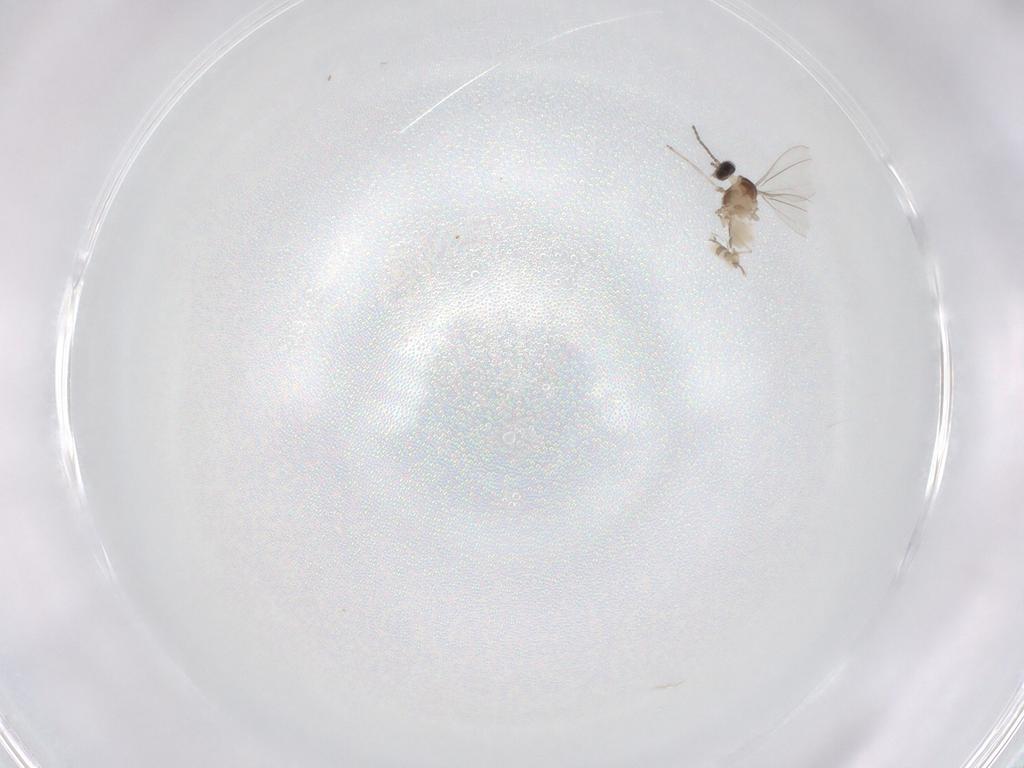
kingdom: Animalia
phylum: Arthropoda
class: Insecta
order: Diptera
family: Cecidomyiidae
